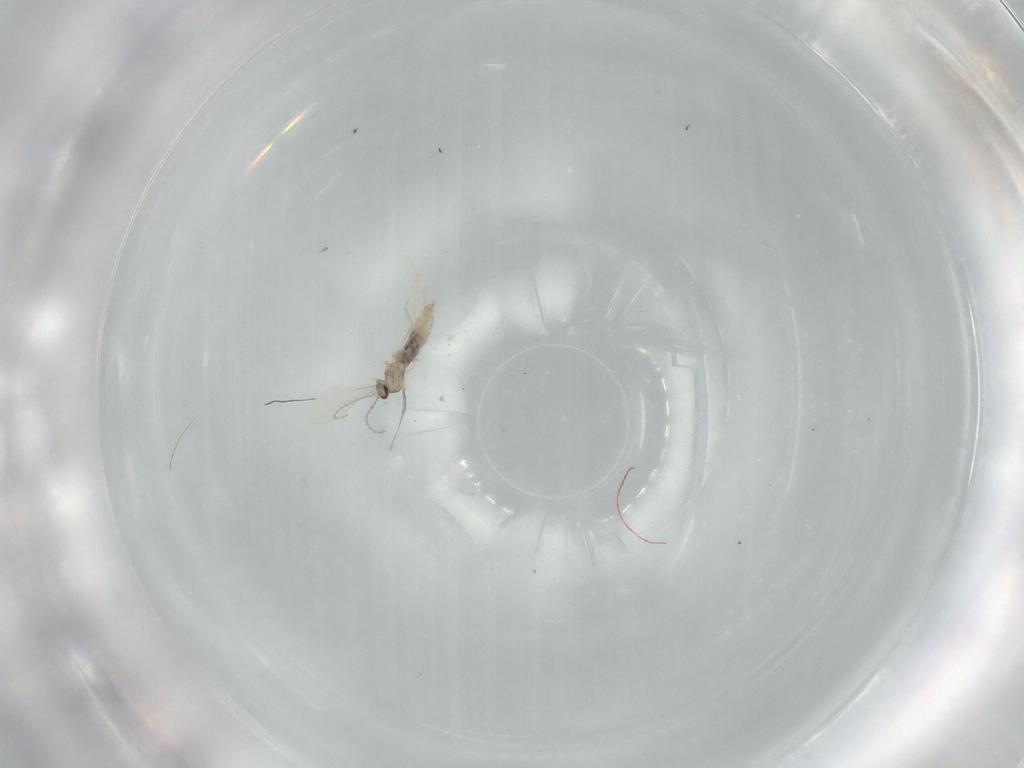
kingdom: Animalia
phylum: Arthropoda
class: Insecta
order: Diptera
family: Cecidomyiidae
